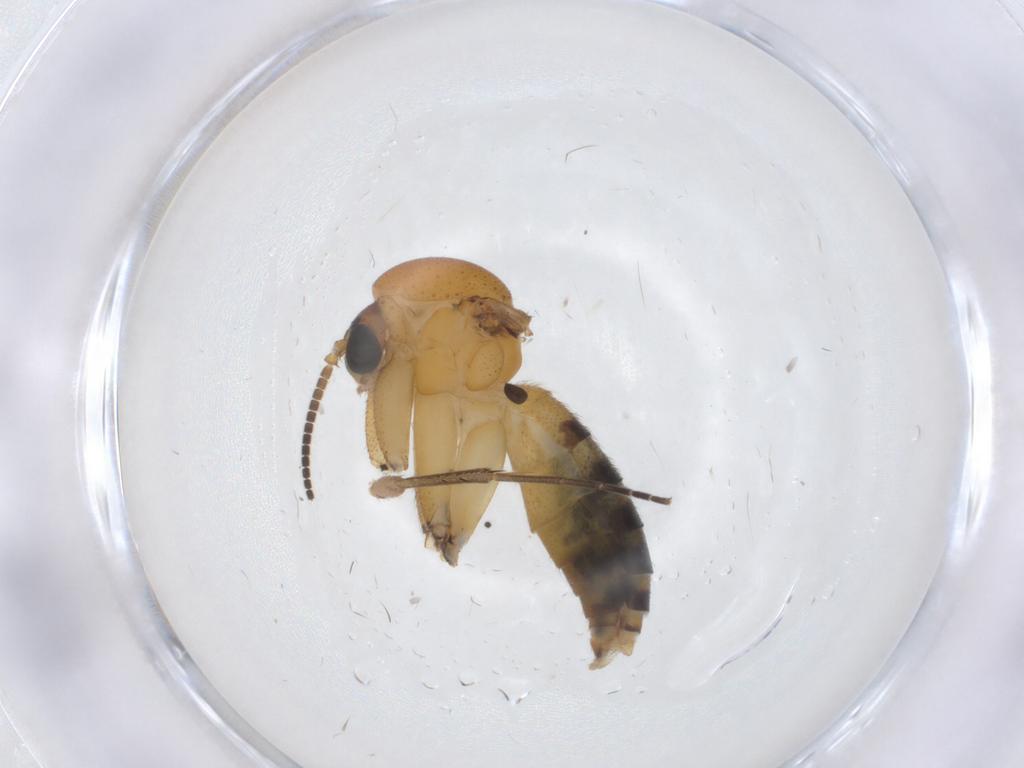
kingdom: Animalia
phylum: Arthropoda
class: Insecta
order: Diptera
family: Mycetophilidae
